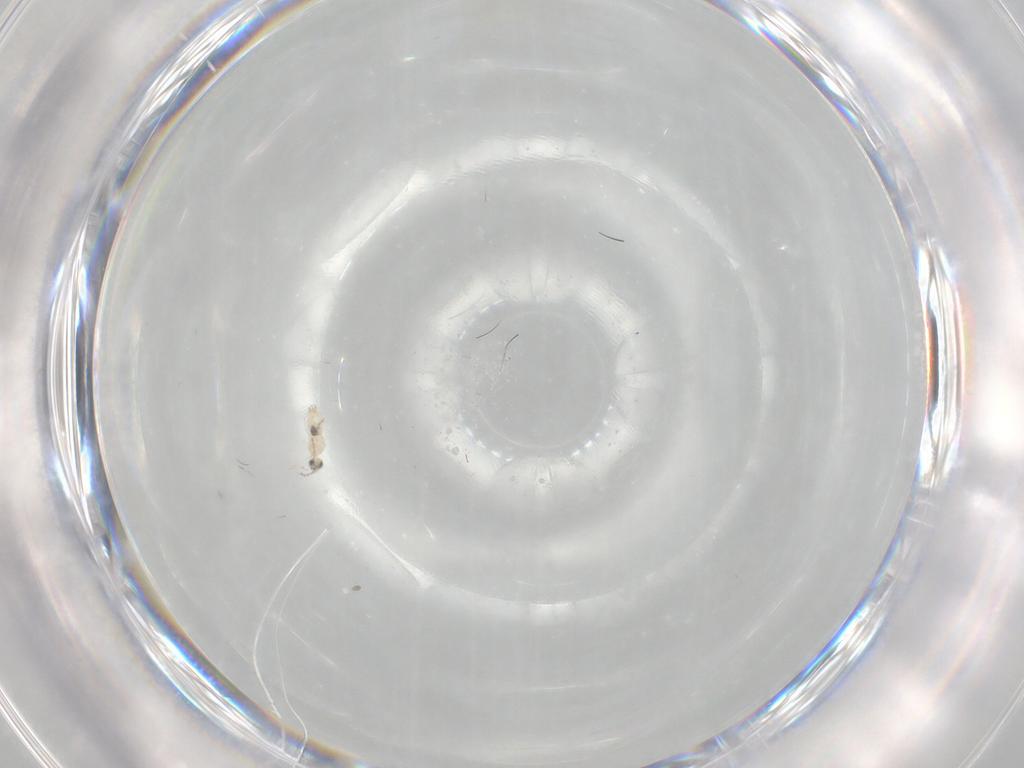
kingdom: Animalia
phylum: Arthropoda
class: Insecta
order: Diptera
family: Cecidomyiidae
